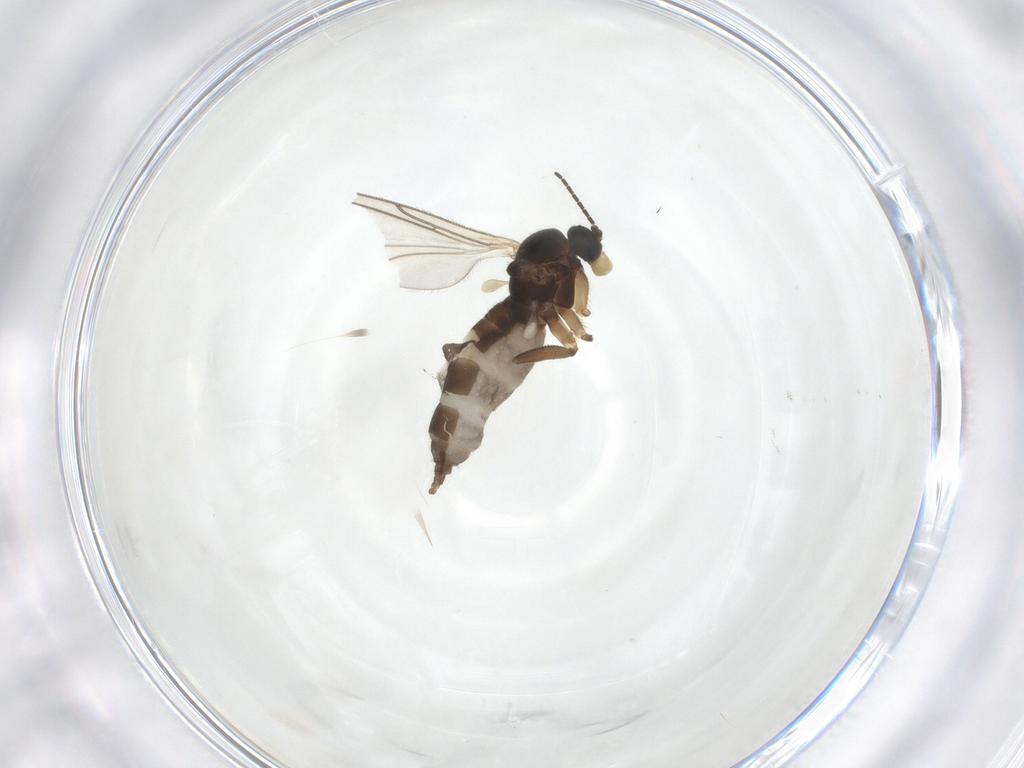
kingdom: Animalia
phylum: Arthropoda
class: Insecta
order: Diptera
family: Sciaridae
